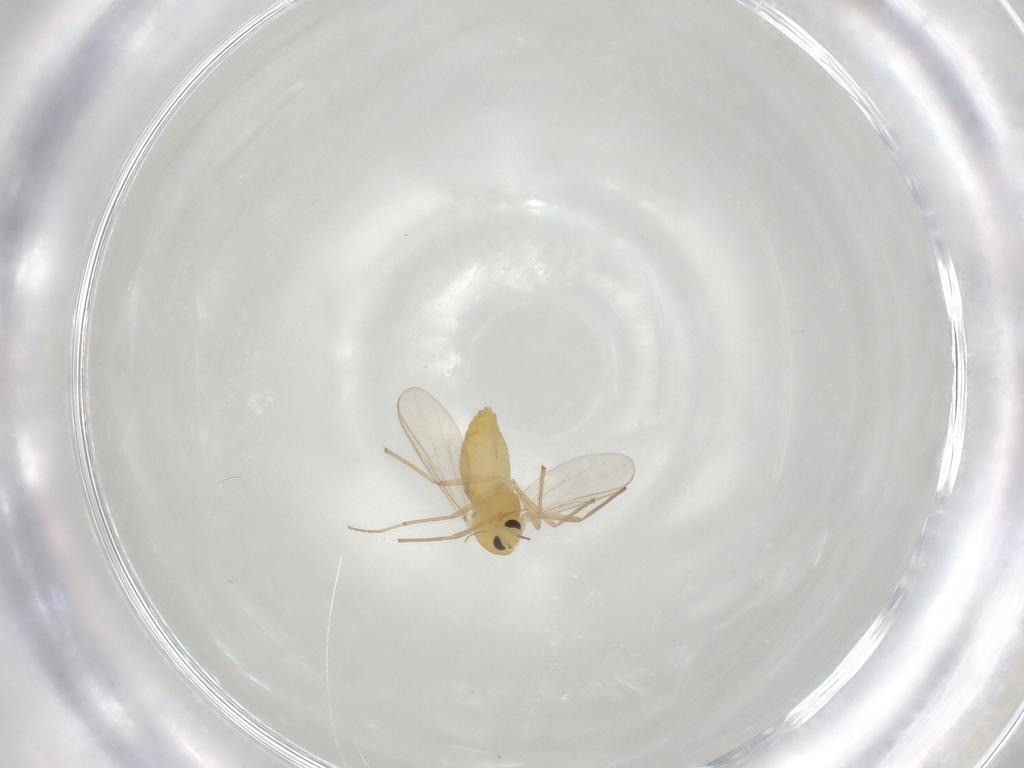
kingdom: Animalia
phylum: Arthropoda
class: Insecta
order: Diptera
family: Chironomidae
